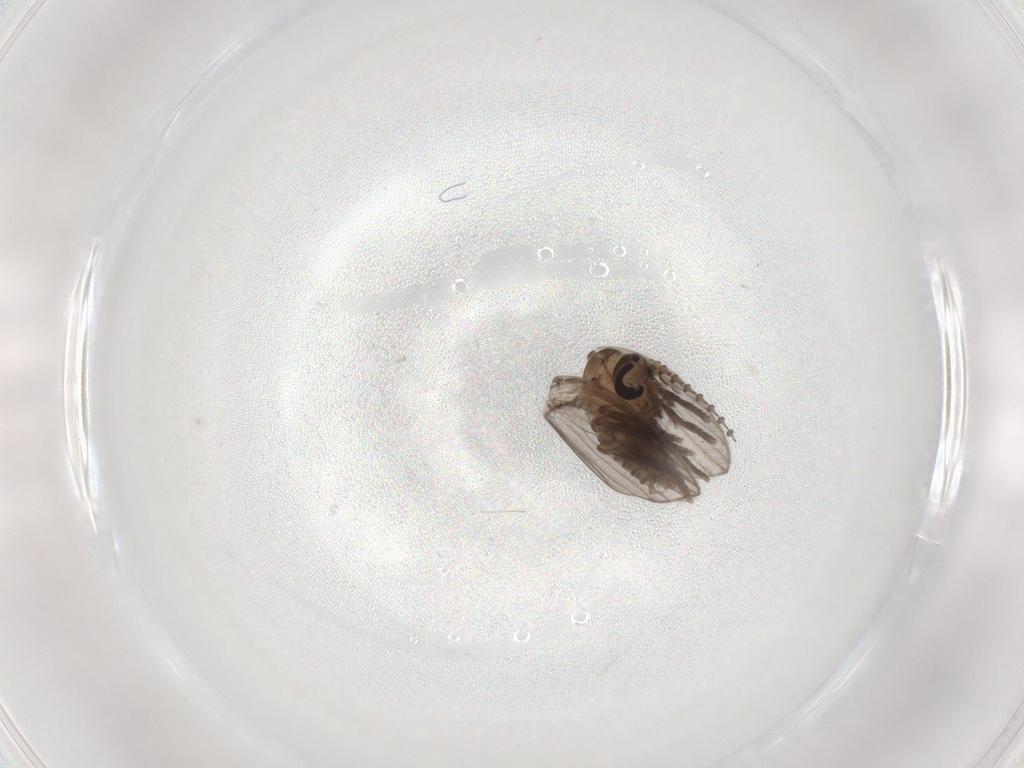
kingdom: Animalia
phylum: Arthropoda
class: Insecta
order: Diptera
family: Psychodidae
